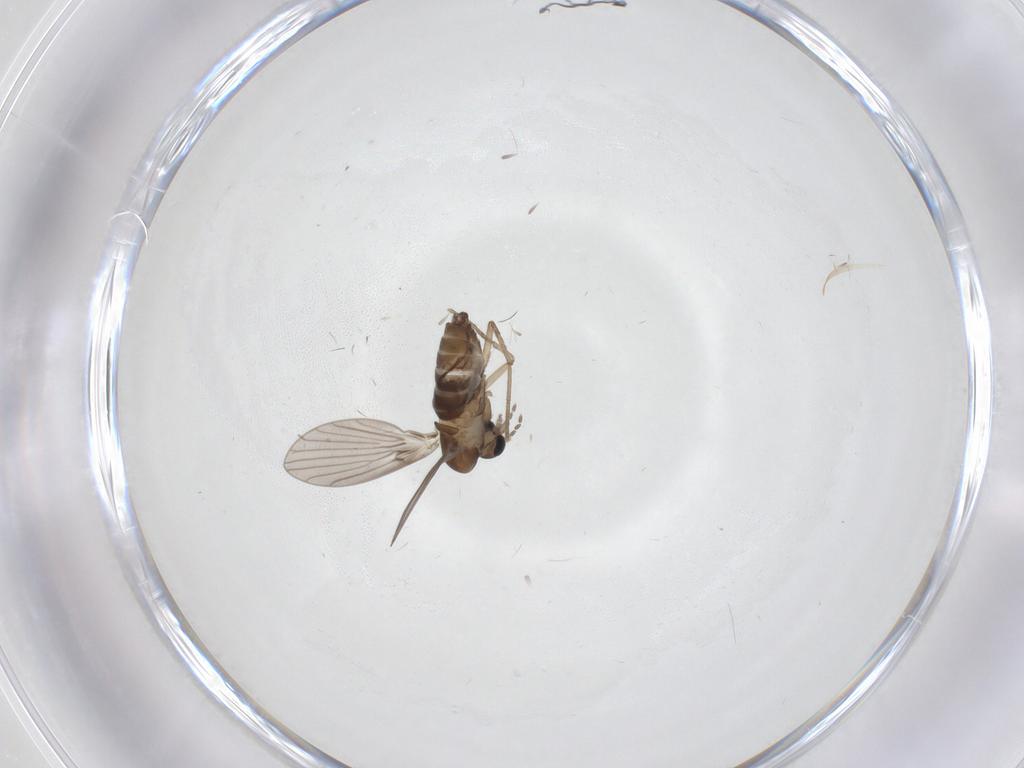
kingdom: Animalia
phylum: Arthropoda
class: Insecta
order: Diptera
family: Psychodidae
